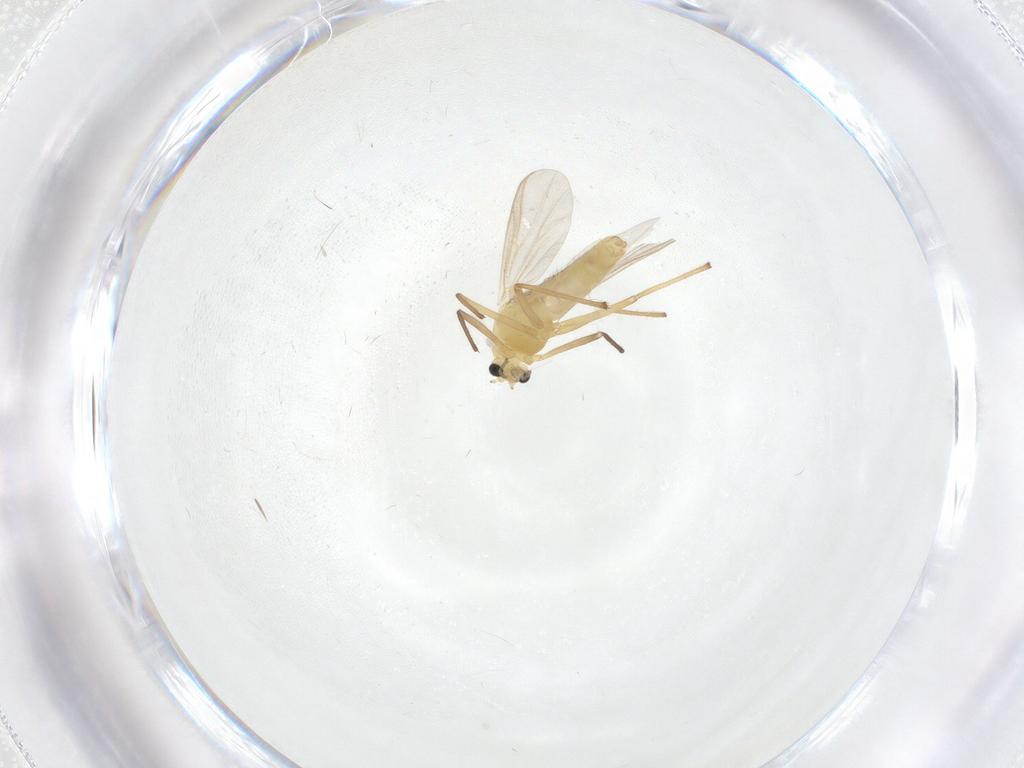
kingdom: Animalia
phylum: Arthropoda
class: Insecta
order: Diptera
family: Chironomidae
